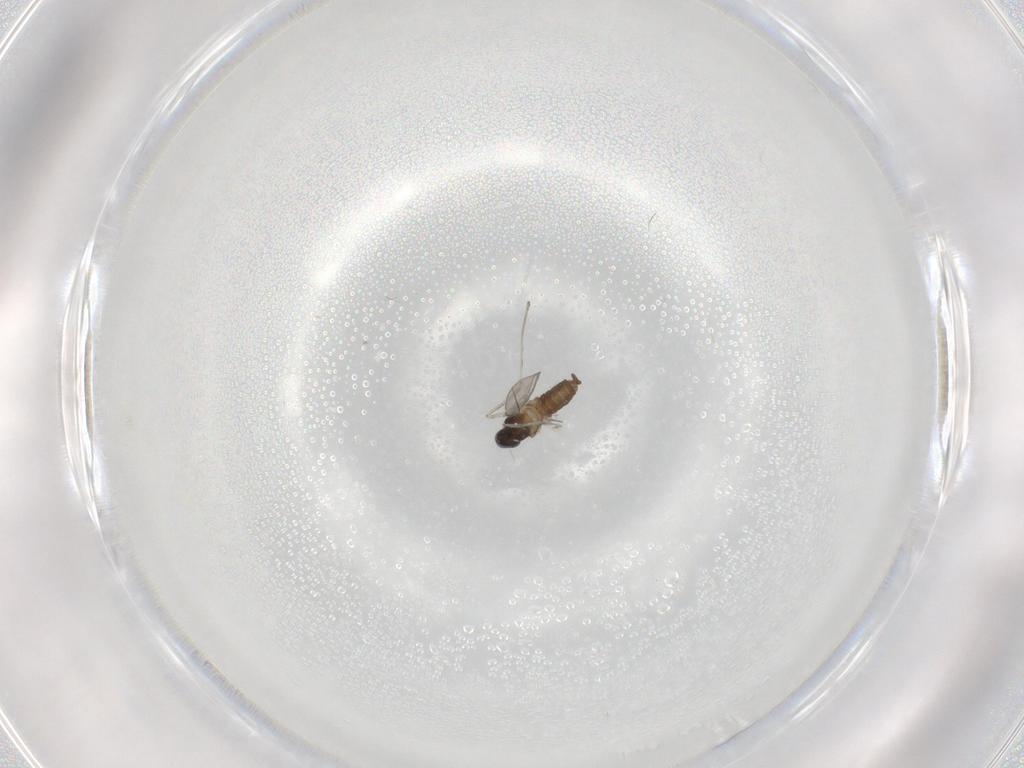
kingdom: Animalia
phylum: Arthropoda
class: Insecta
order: Diptera
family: Cecidomyiidae
